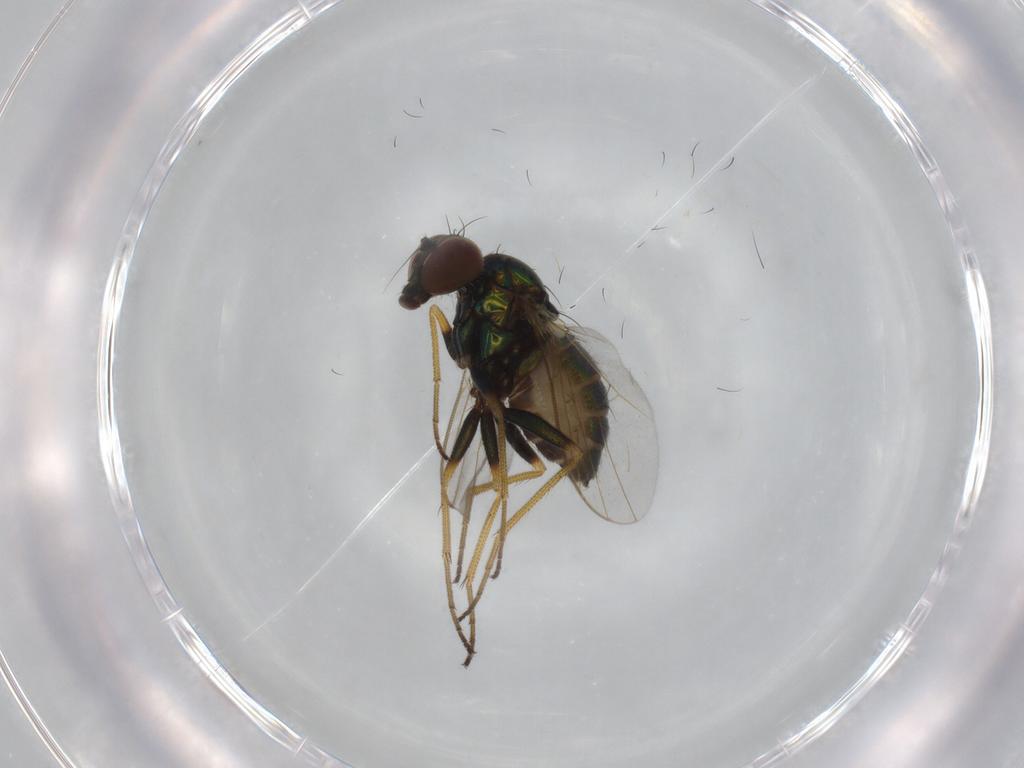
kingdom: Animalia
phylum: Arthropoda
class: Insecta
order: Diptera
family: Dolichopodidae
